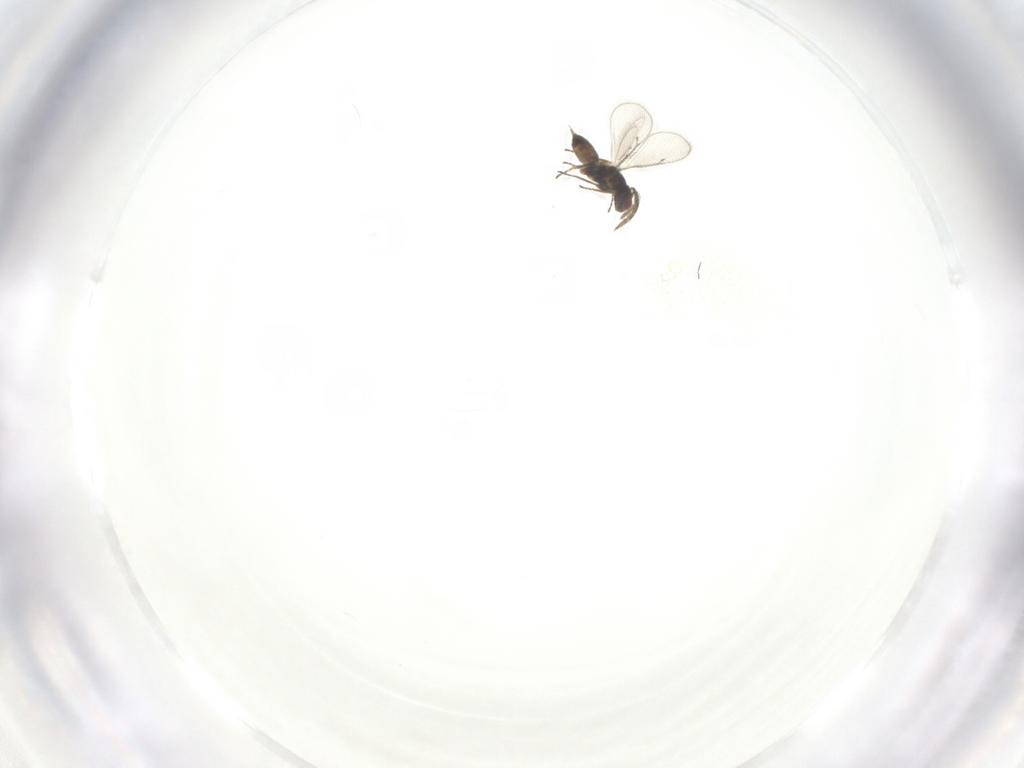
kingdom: Animalia
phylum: Arthropoda
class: Insecta
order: Hymenoptera
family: Eulophidae
